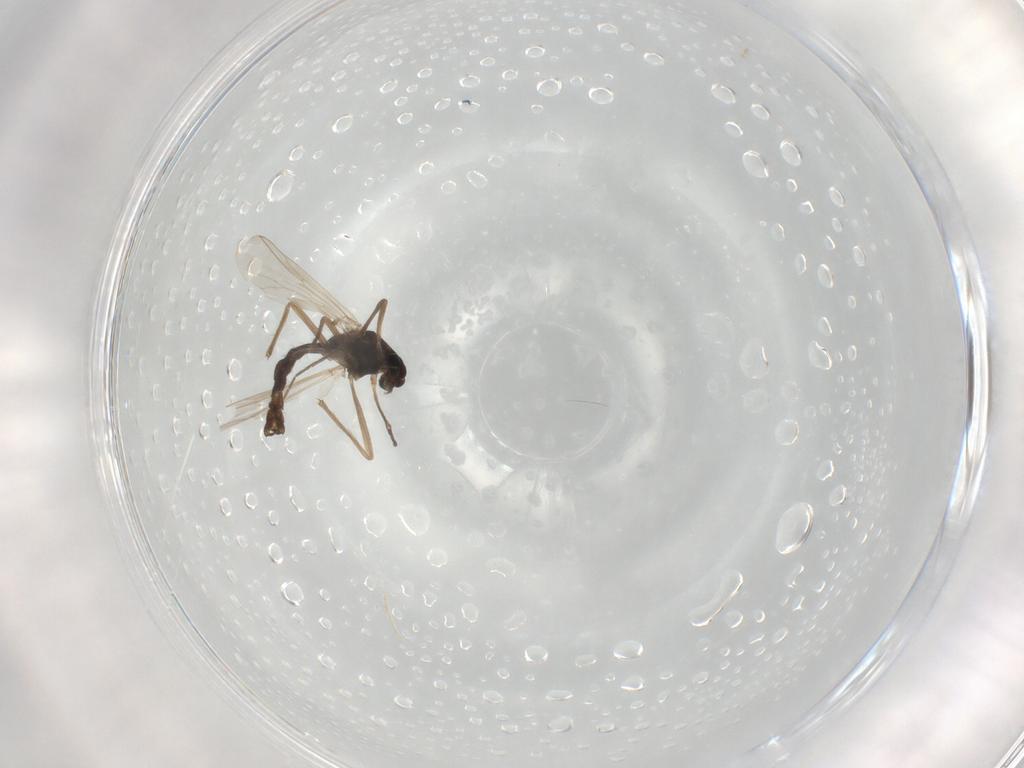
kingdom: Animalia
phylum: Arthropoda
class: Insecta
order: Diptera
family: Chironomidae
